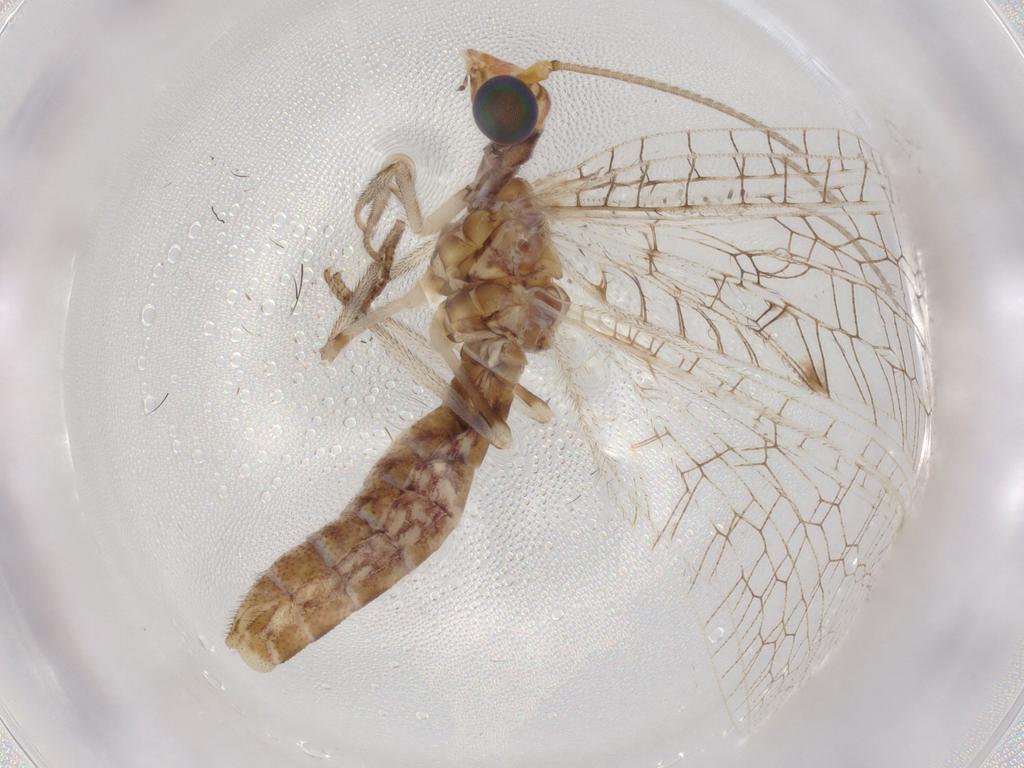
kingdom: Animalia
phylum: Arthropoda
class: Insecta
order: Neuroptera
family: Chrysopidae
